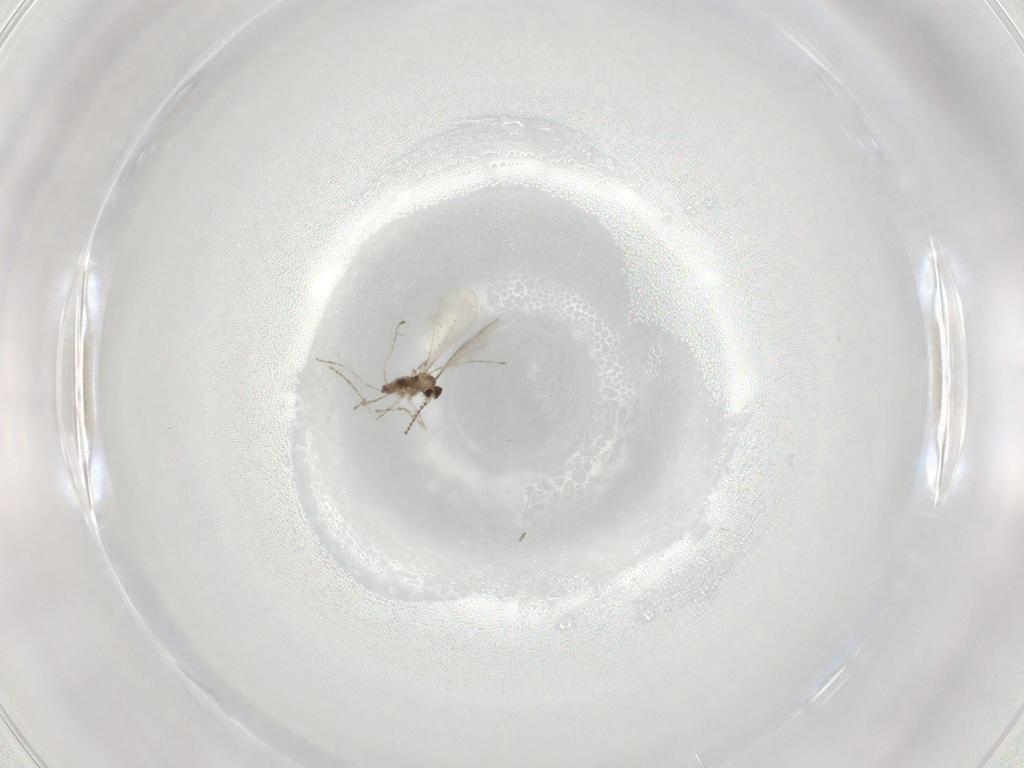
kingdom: Animalia
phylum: Arthropoda
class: Insecta
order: Diptera
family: Cecidomyiidae
